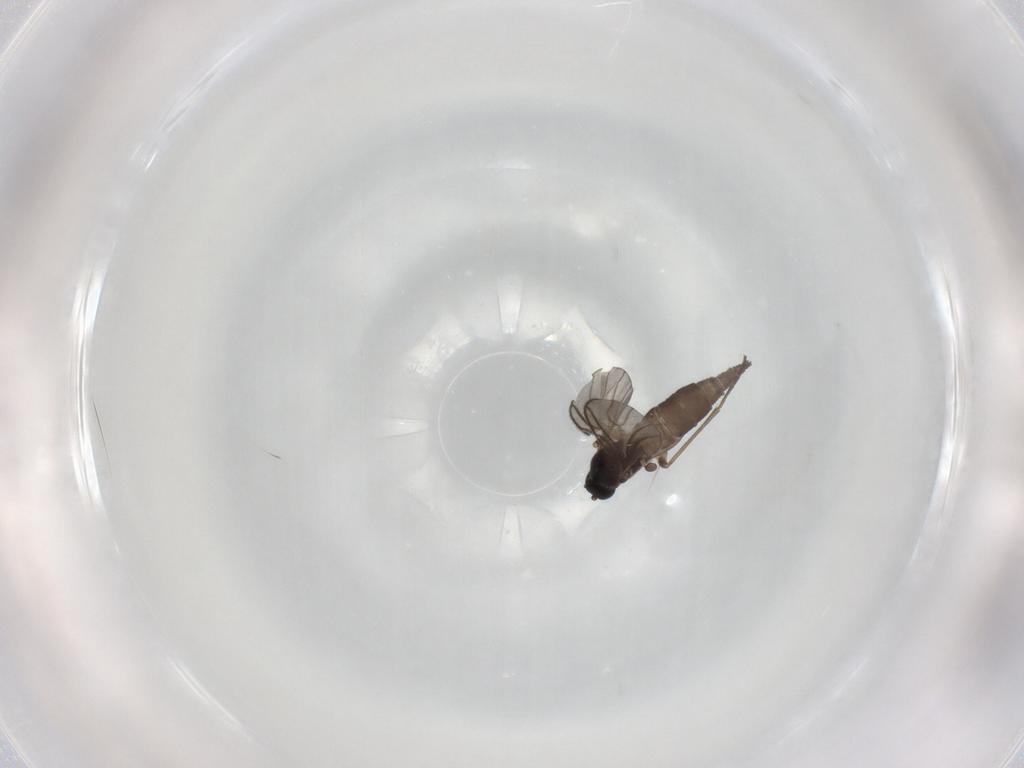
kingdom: Animalia
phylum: Arthropoda
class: Insecta
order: Diptera
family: Sciaridae
